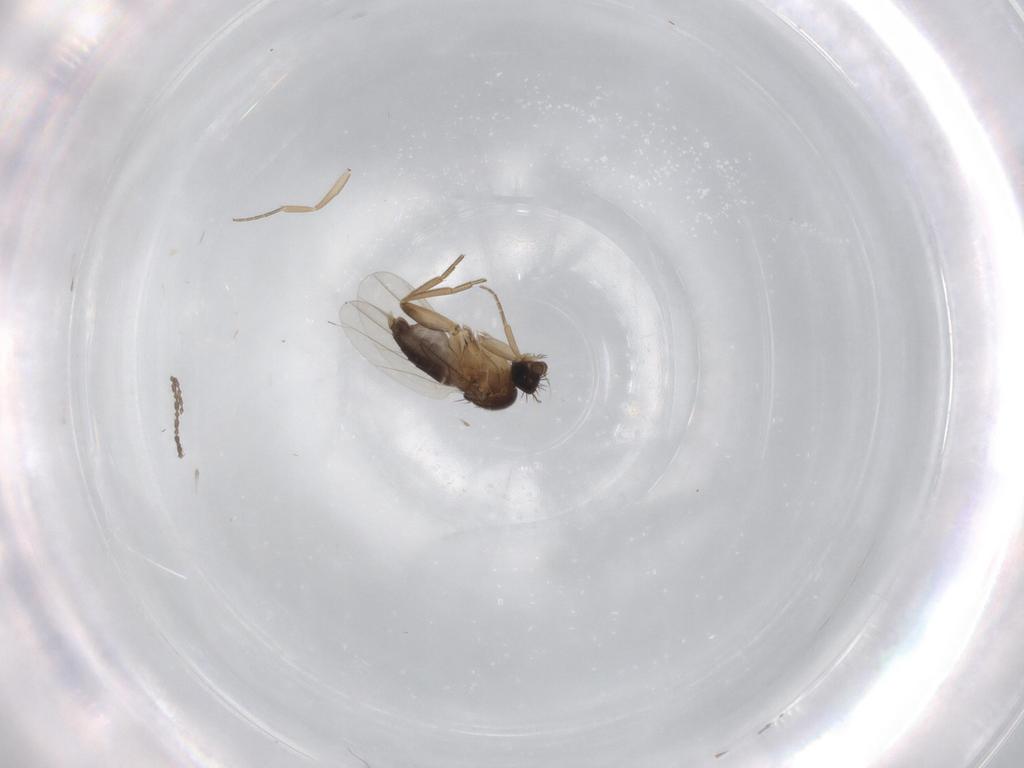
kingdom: Animalia
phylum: Arthropoda
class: Insecta
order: Diptera
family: Phoridae
